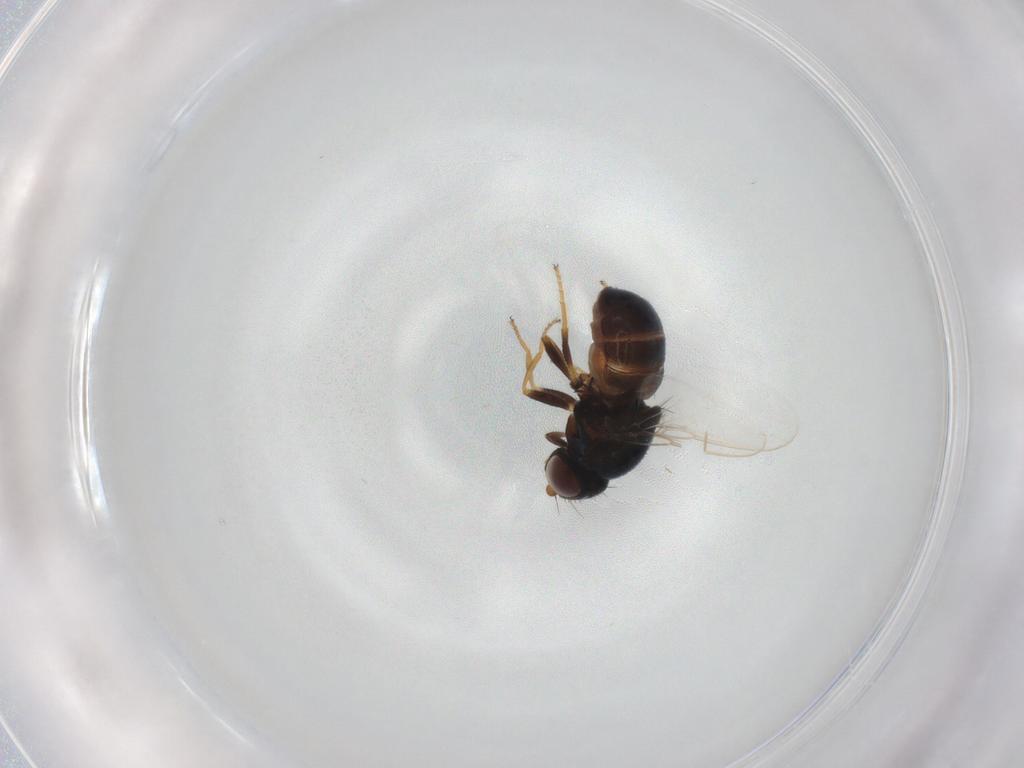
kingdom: Animalia
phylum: Arthropoda
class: Insecta
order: Diptera
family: Chloropidae
